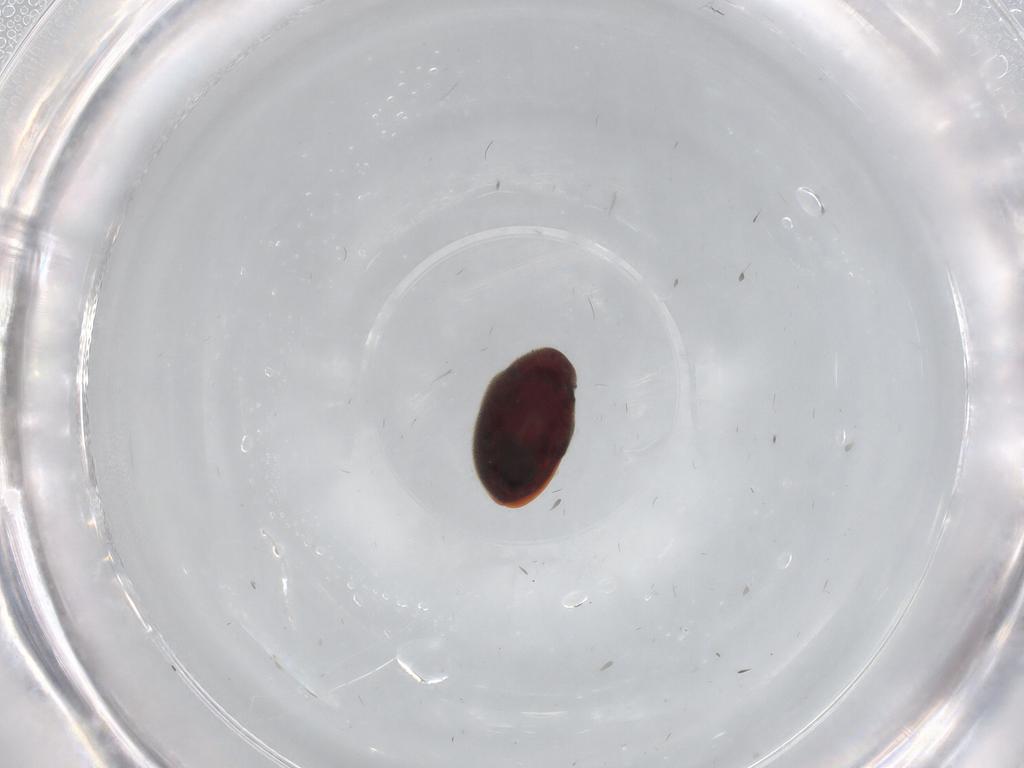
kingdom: Animalia
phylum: Arthropoda
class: Insecta
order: Coleoptera
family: Ptinidae
